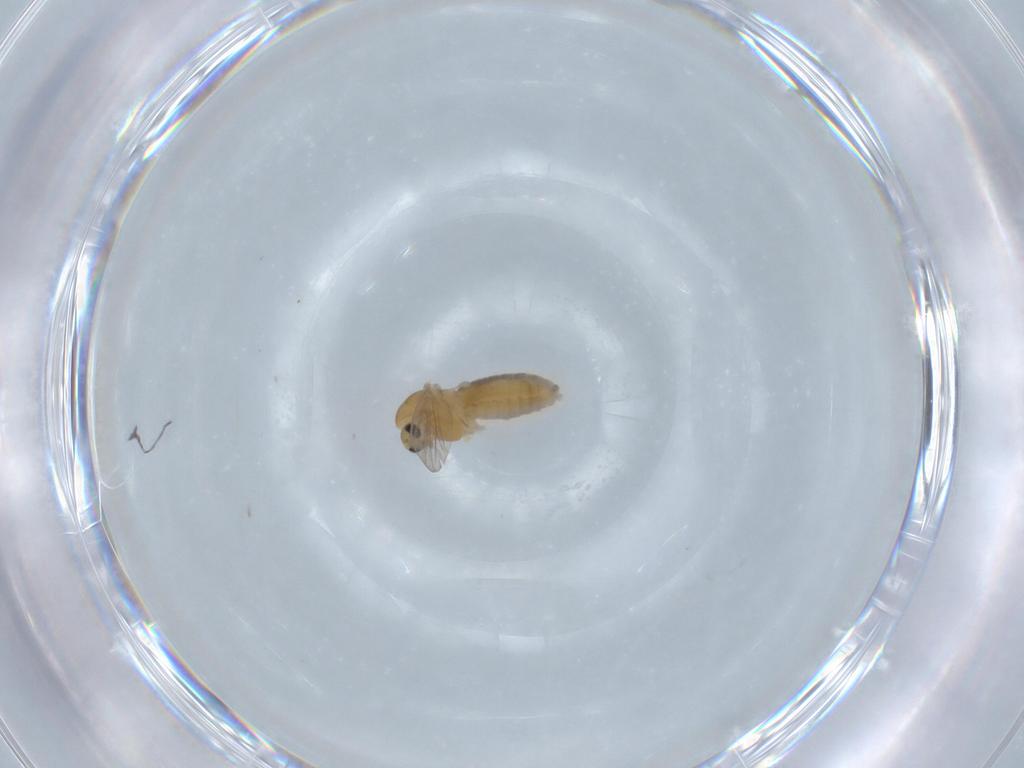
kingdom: Animalia
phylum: Arthropoda
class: Insecta
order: Diptera
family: Chironomidae
